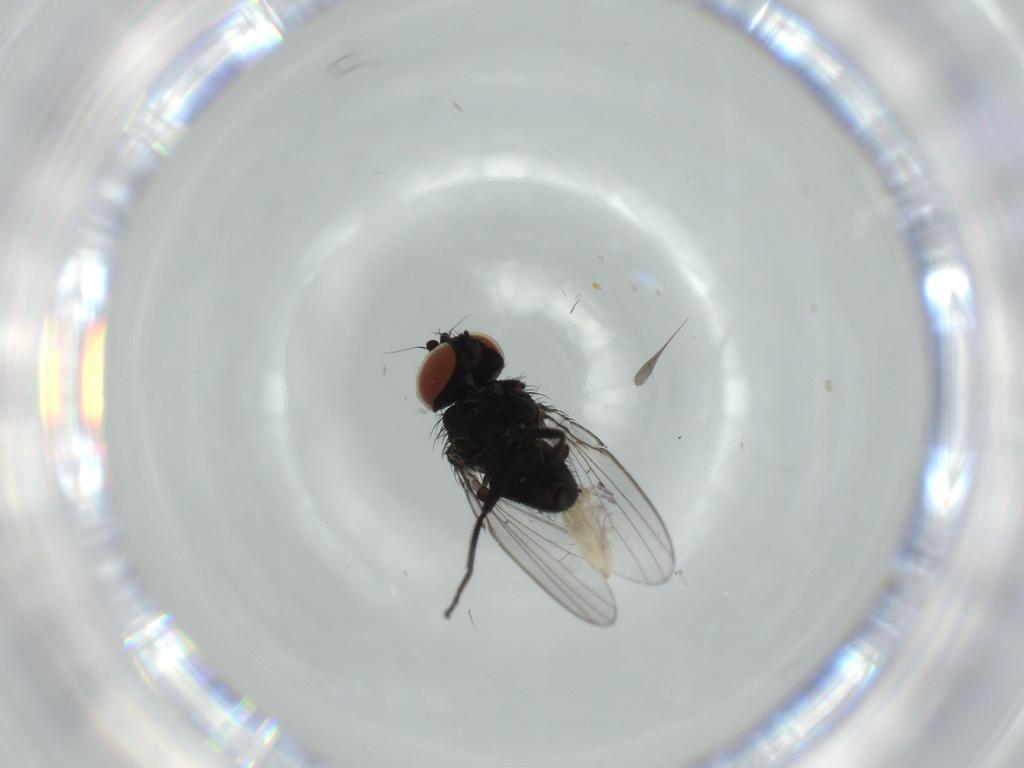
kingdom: Animalia
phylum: Arthropoda
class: Insecta
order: Diptera
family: Milichiidae
